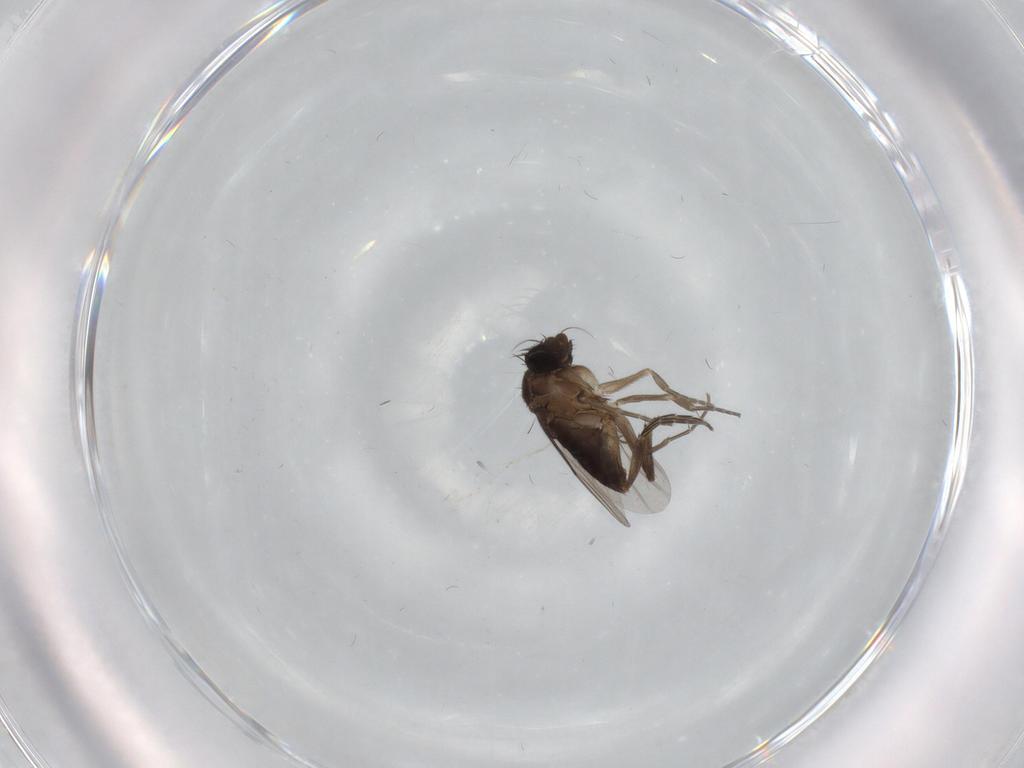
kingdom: Animalia
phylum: Arthropoda
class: Insecta
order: Diptera
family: Phoridae
